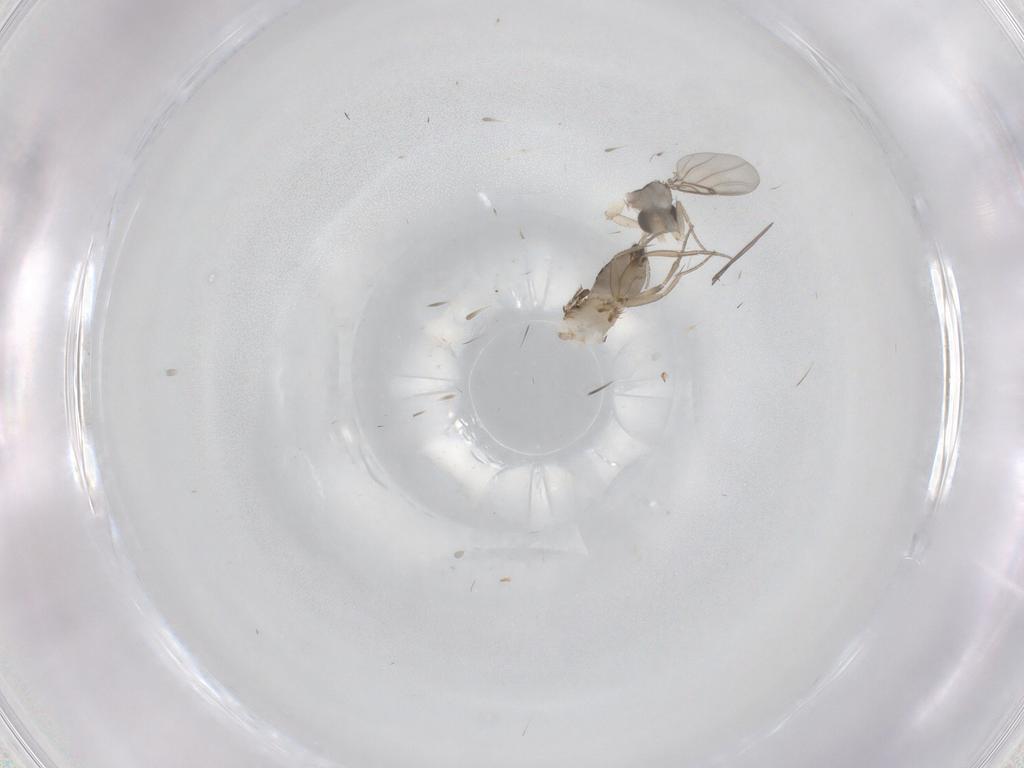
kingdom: Animalia
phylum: Arthropoda
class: Insecta
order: Diptera
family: Phoridae
